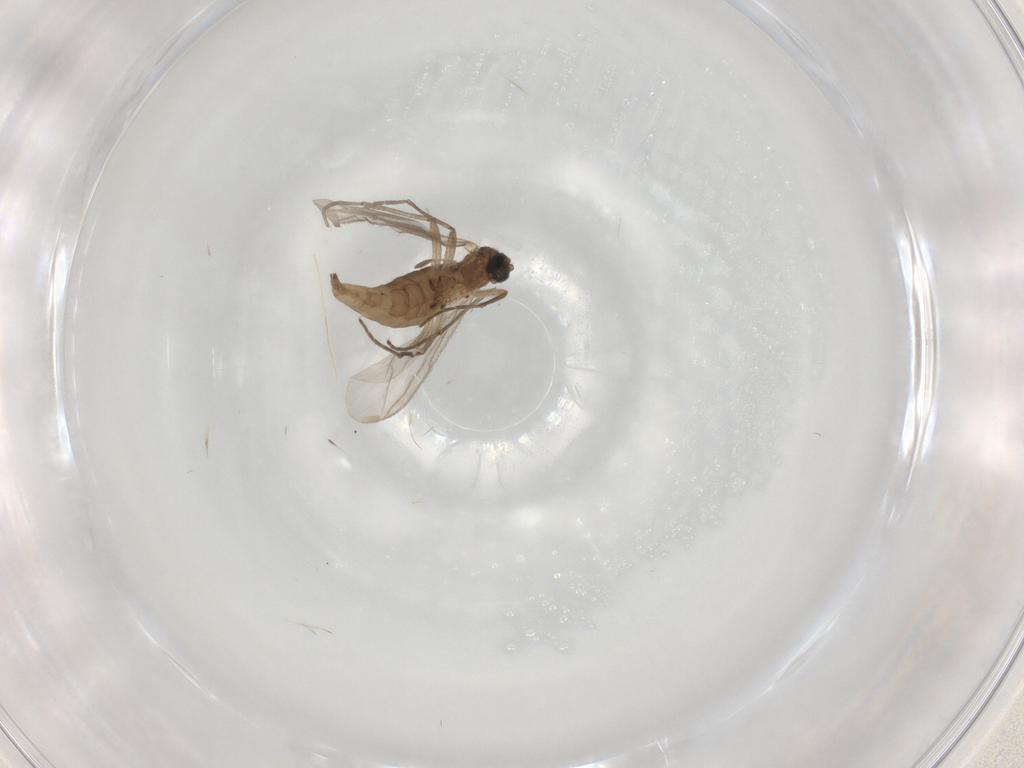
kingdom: Animalia
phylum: Arthropoda
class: Insecta
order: Diptera
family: Sciaridae
